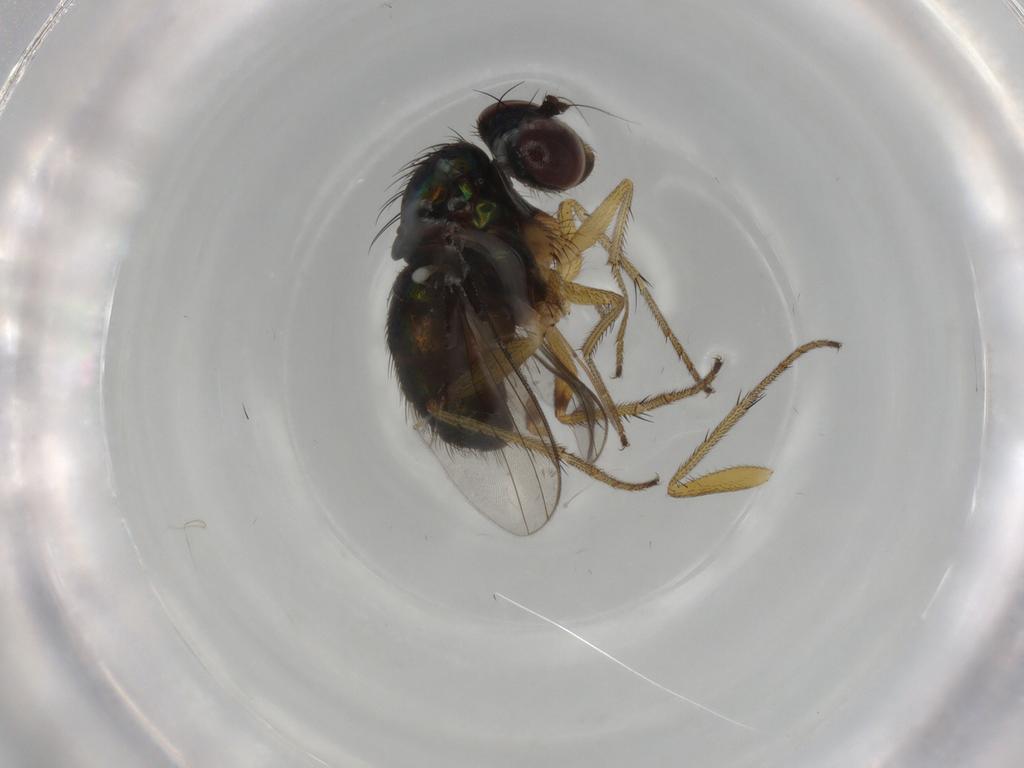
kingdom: Animalia
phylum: Arthropoda
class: Insecta
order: Diptera
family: Dolichopodidae
